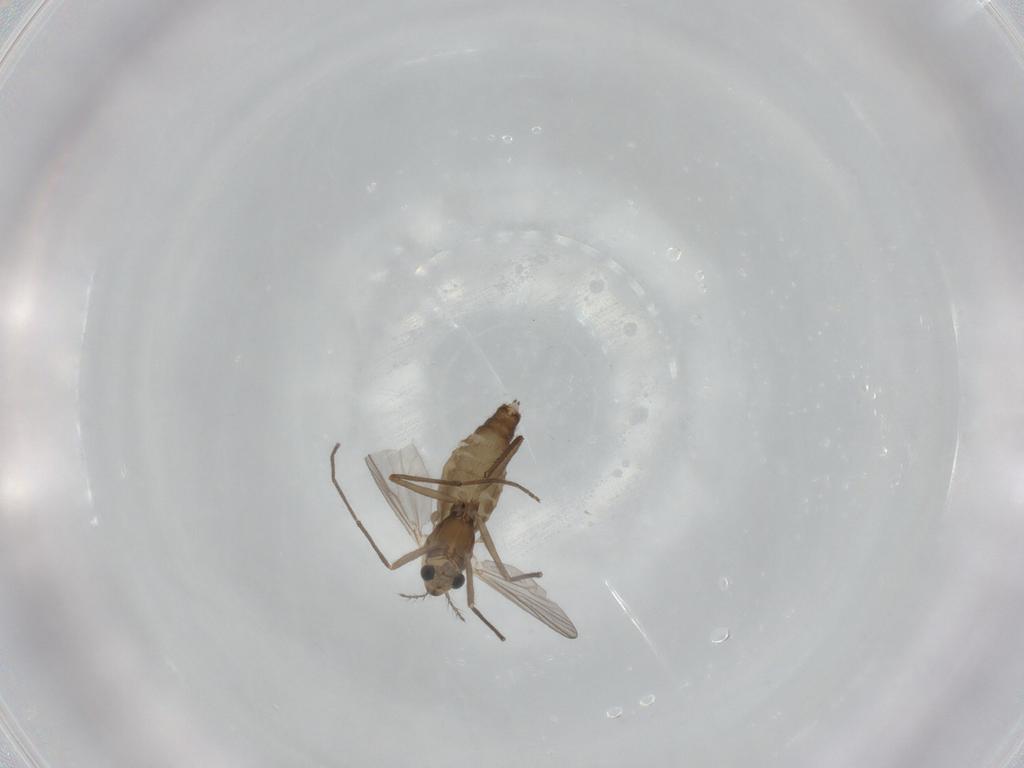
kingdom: Animalia
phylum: Arthropoda
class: Insecta
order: Diptera
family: Chironomidae
